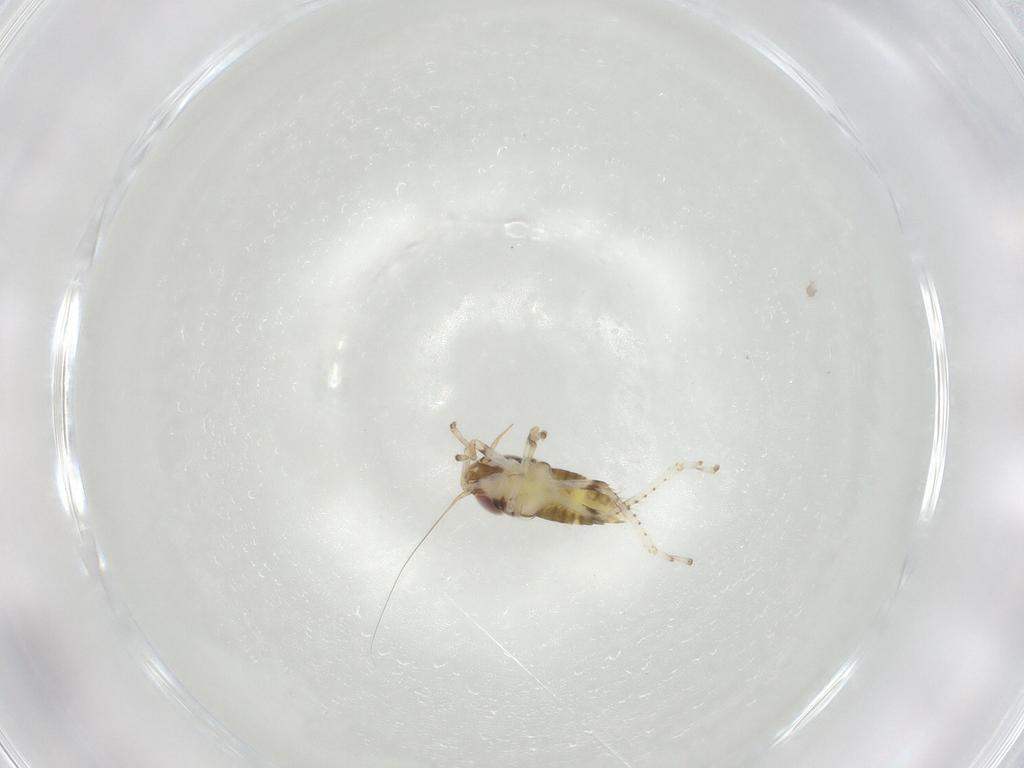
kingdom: Animalia
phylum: Arthropoda
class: Insecta
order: Hemiptera
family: Cicadellidae
